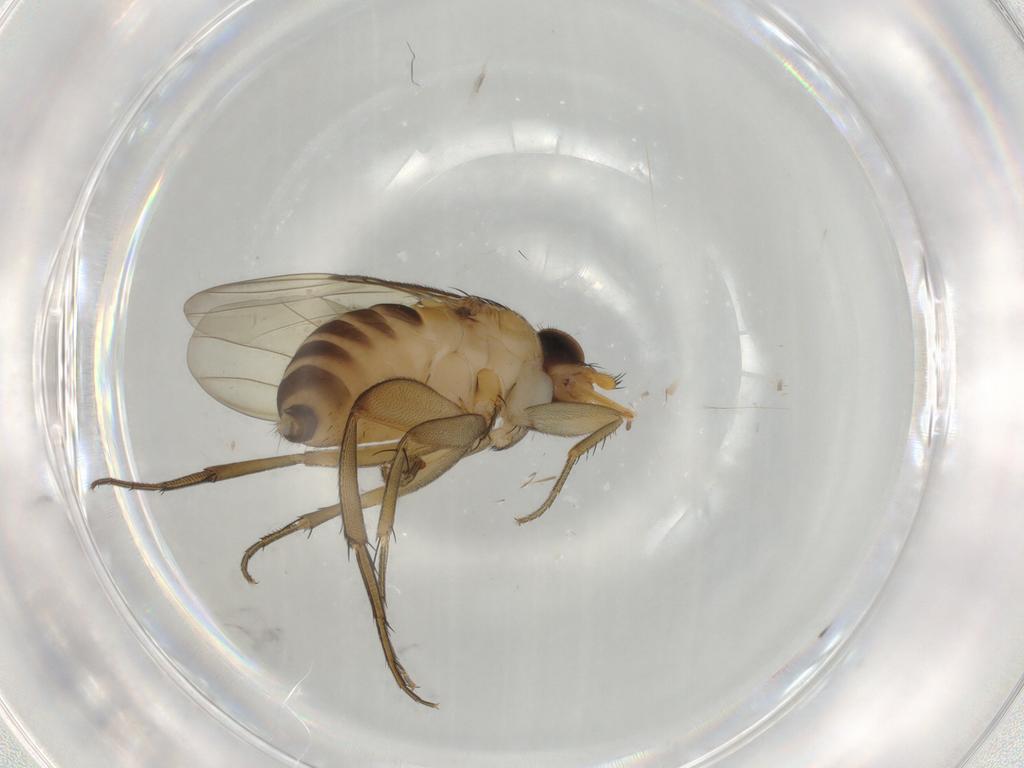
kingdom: Animalia
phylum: Arthropoda
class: Insecta
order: Diptera
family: Phoridae
